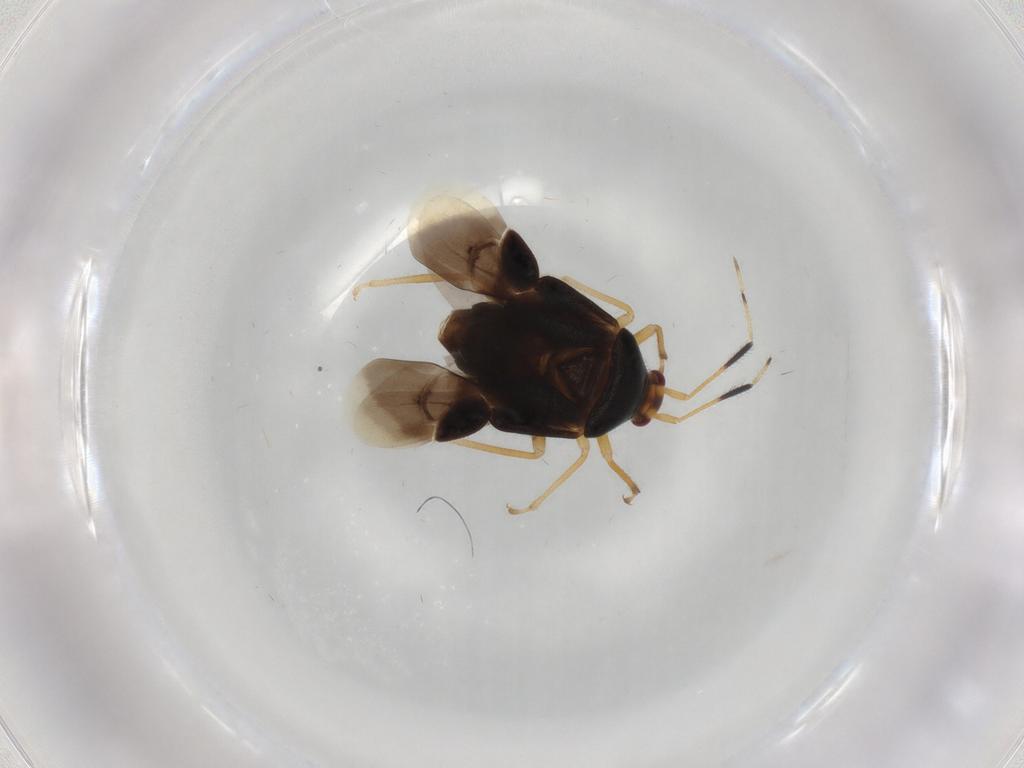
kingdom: Animalia
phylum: Arthropoda
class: Insecta
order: Hemiptera
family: Miridae
